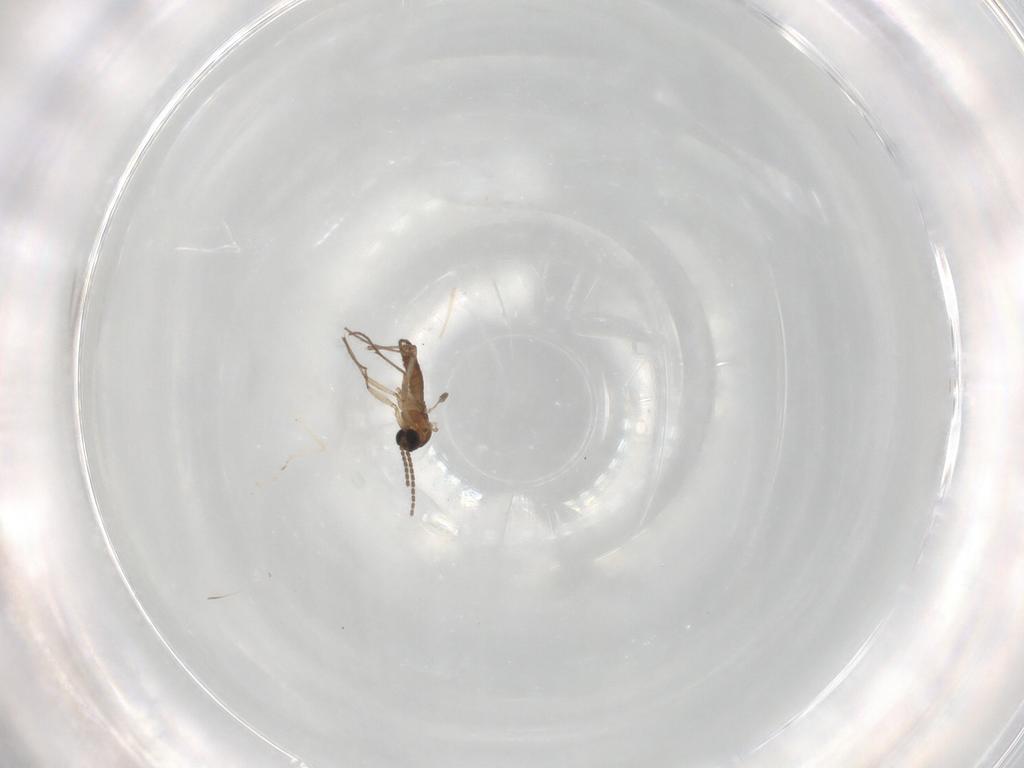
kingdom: Animalia
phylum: Arthropoda
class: Insecta
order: Diptera
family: Sciaridae
